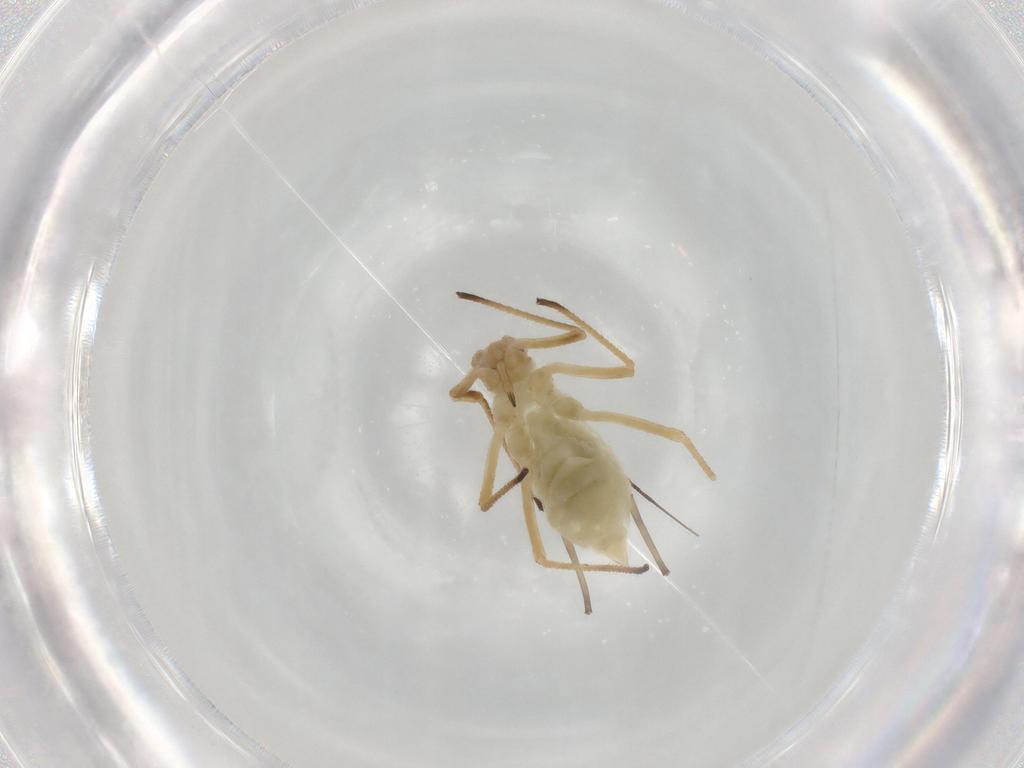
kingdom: Animalia
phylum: Arthropoda
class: Insecta
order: Hemiptera
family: Aphididae
